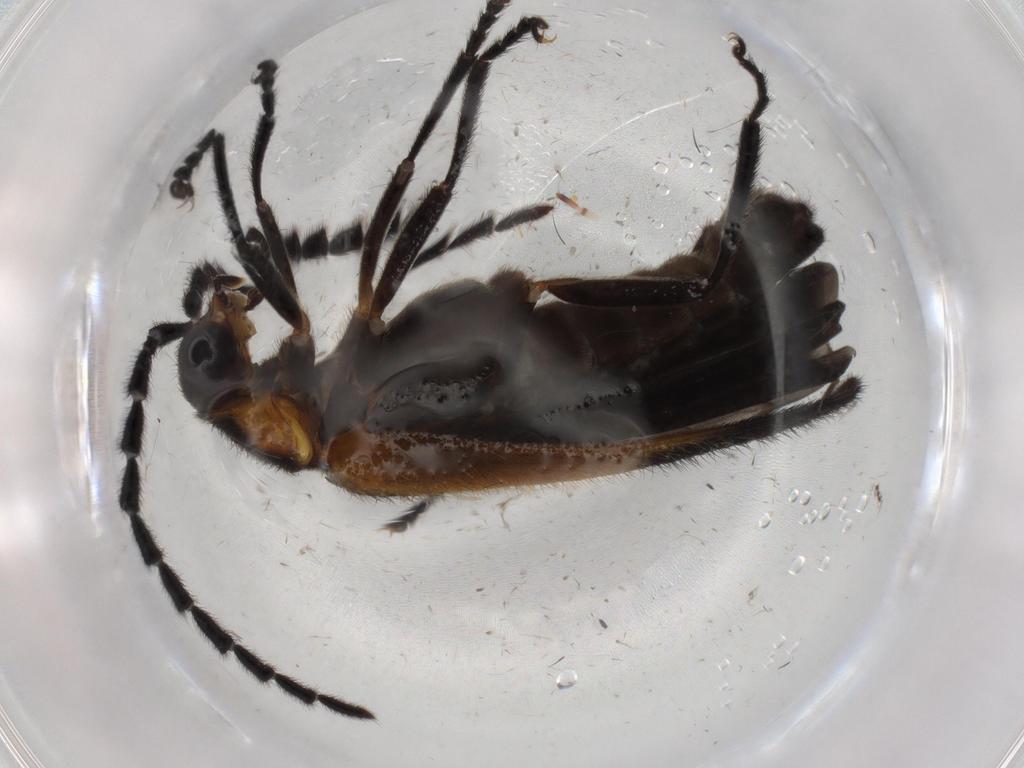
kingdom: Animalia
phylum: Arthropoda
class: Insecta
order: Coleoptera
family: Cantharidae
